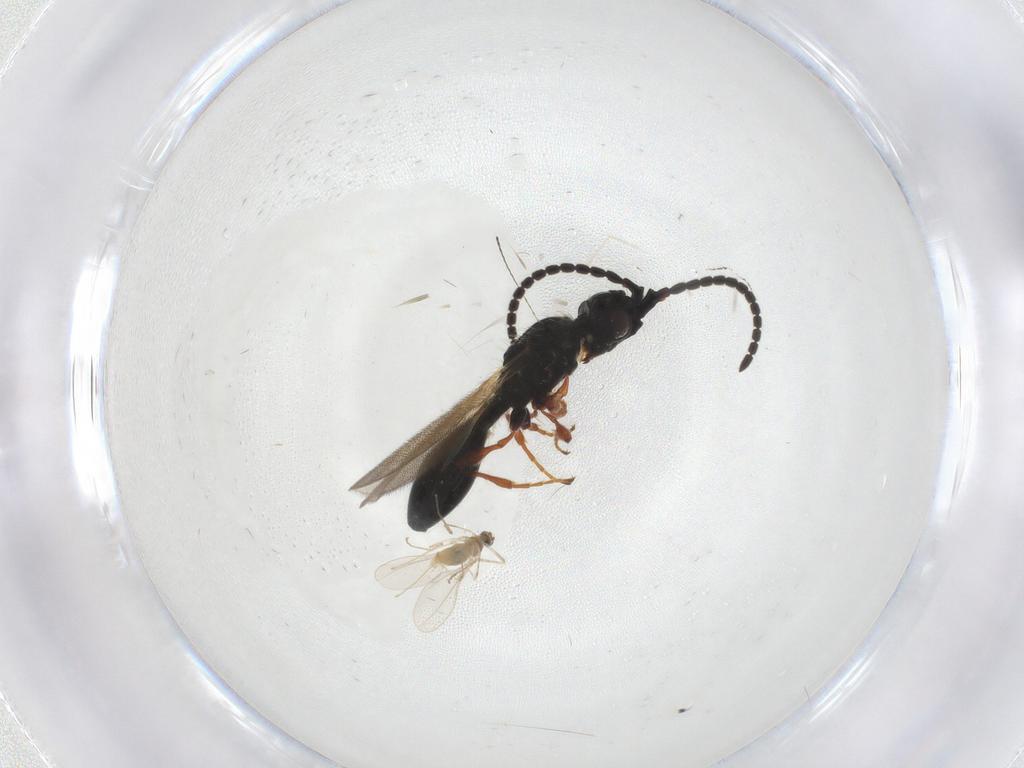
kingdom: Animalia
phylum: Arthropoda
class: Insecta
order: Diptera
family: Cecidomyiidae
